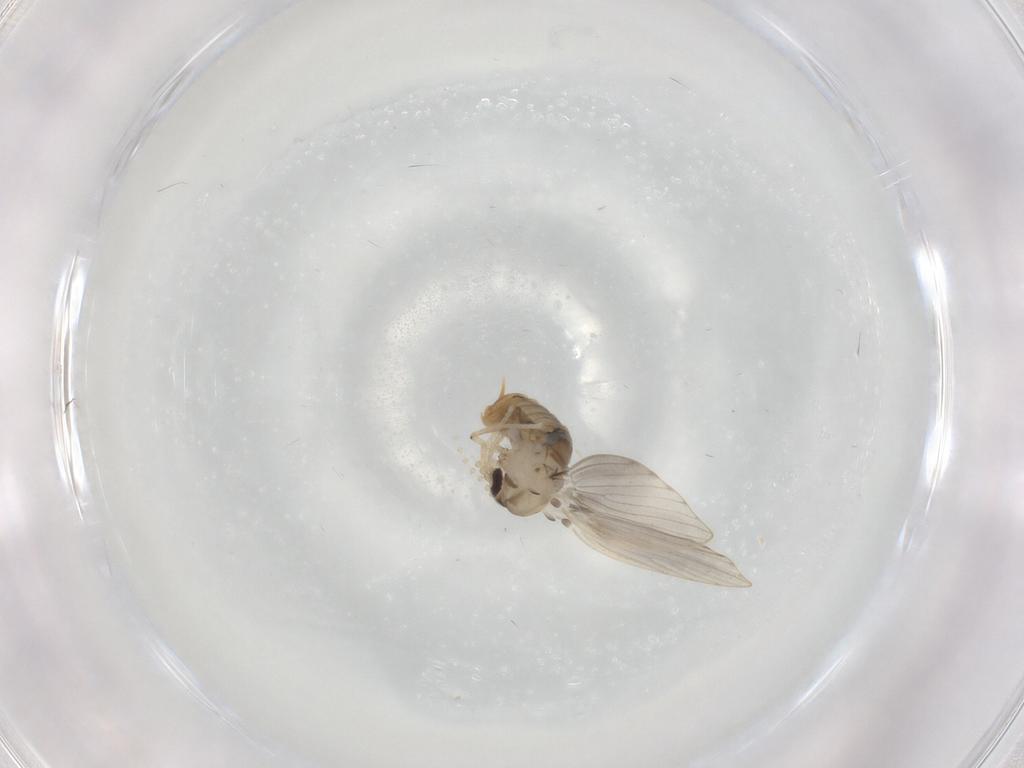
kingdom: Animalia
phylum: Arthropoda
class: Insecta
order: Diptera
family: Psychodidae
